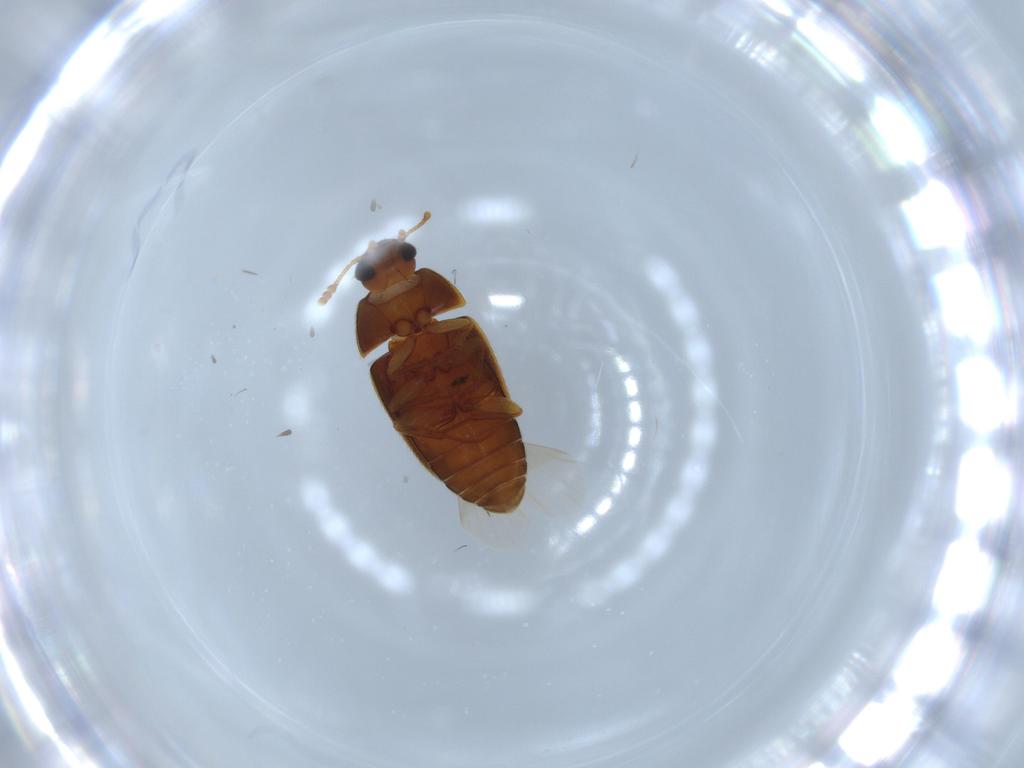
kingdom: Animalia
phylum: Arthropoda
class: Insecta
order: Coleoptera
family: Mycetophagidae
